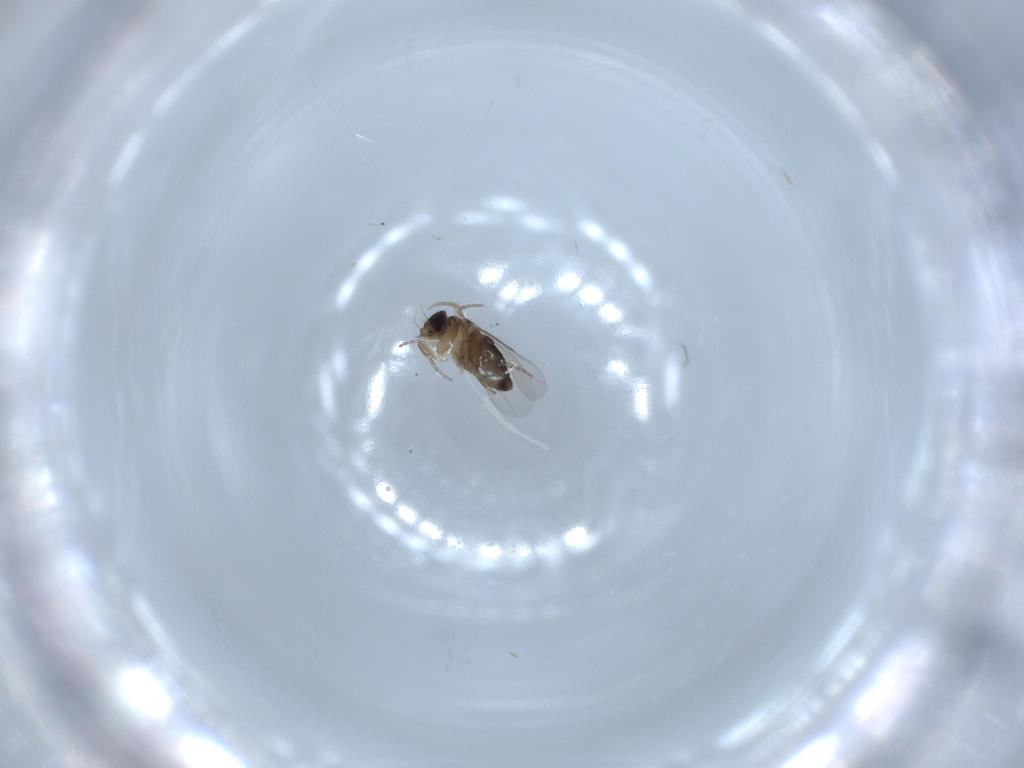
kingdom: Animalia
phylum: Arthropoda
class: Insecta
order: Diptera
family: Phoridae
